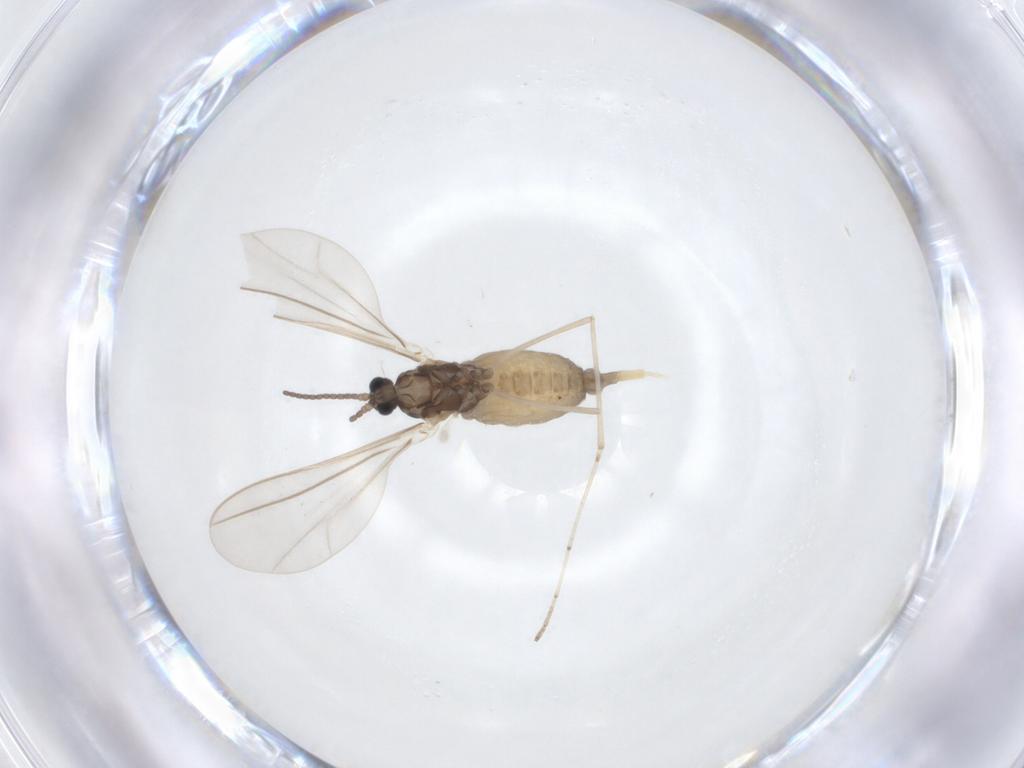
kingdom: Animalia
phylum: Arthropoda
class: Insecta
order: Diptera
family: Cecidomyiidae
